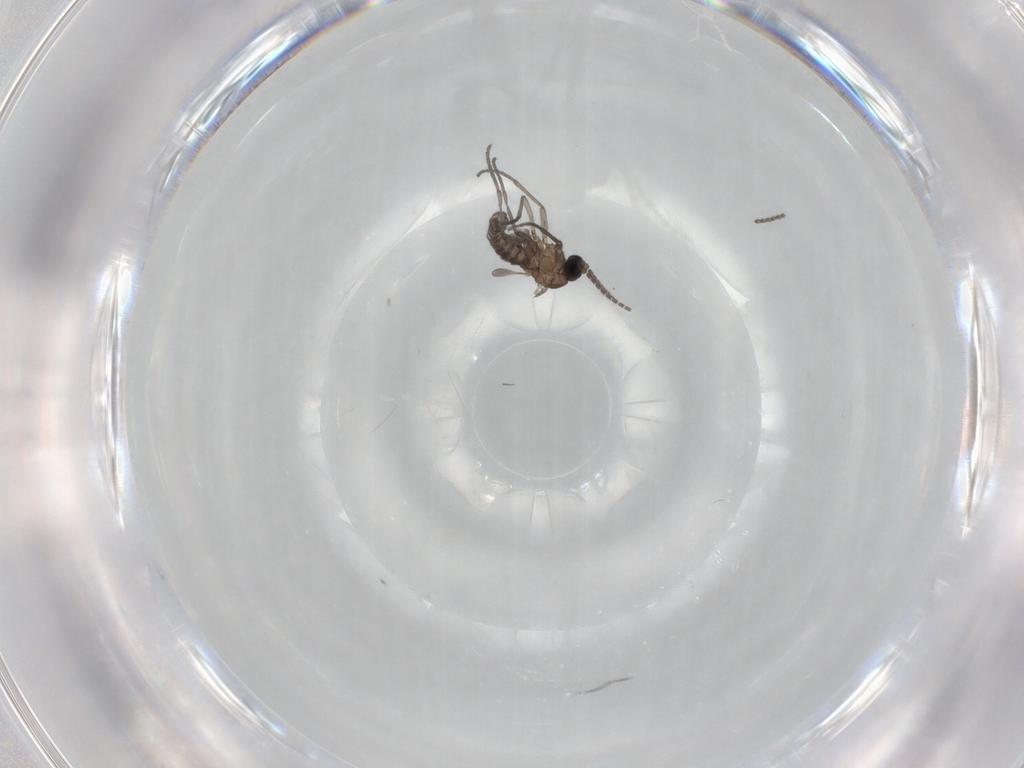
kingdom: Animalia
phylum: Arthropoda
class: Insecta
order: Diptera
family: Sciaridae
